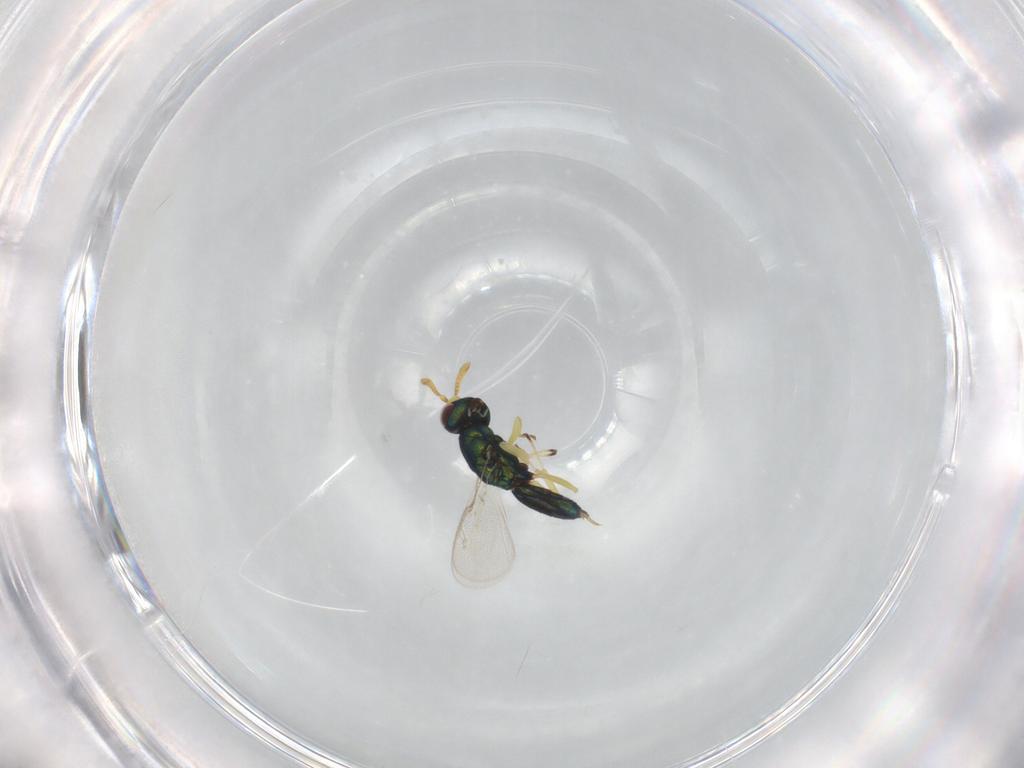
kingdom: Animalia
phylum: Arthropoda
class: Insecta
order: Hymenoptera
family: Pteromalidae
